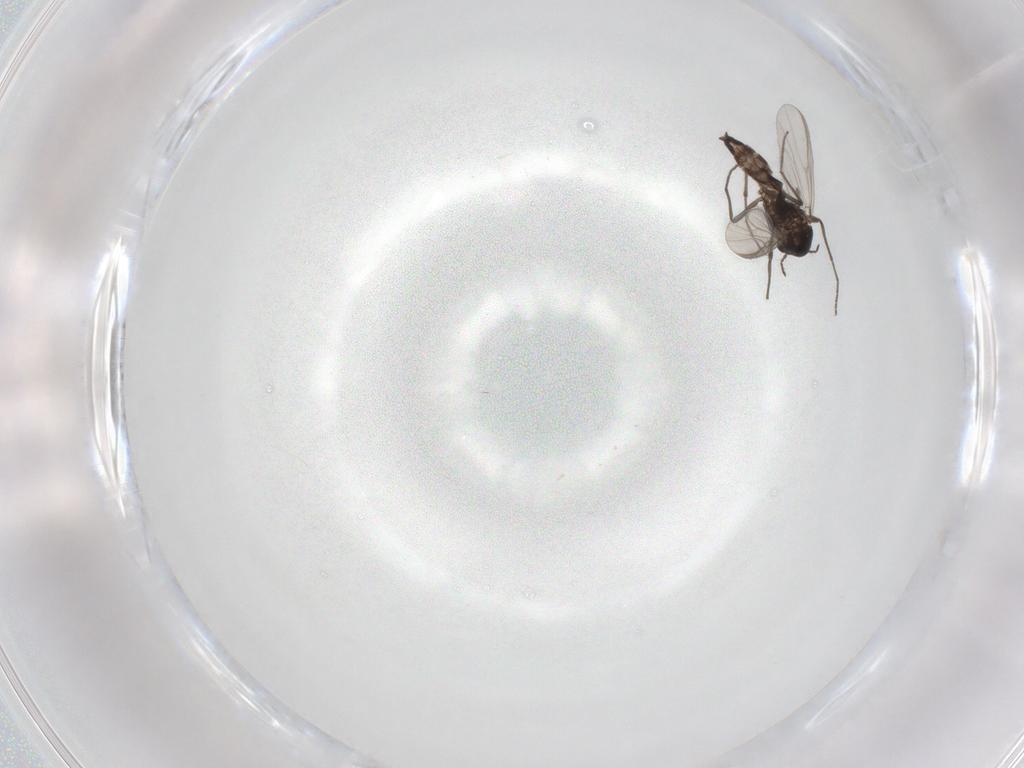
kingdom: Animalia
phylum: Arthropoda
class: Insecta
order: Diptera
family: Chironomidae
